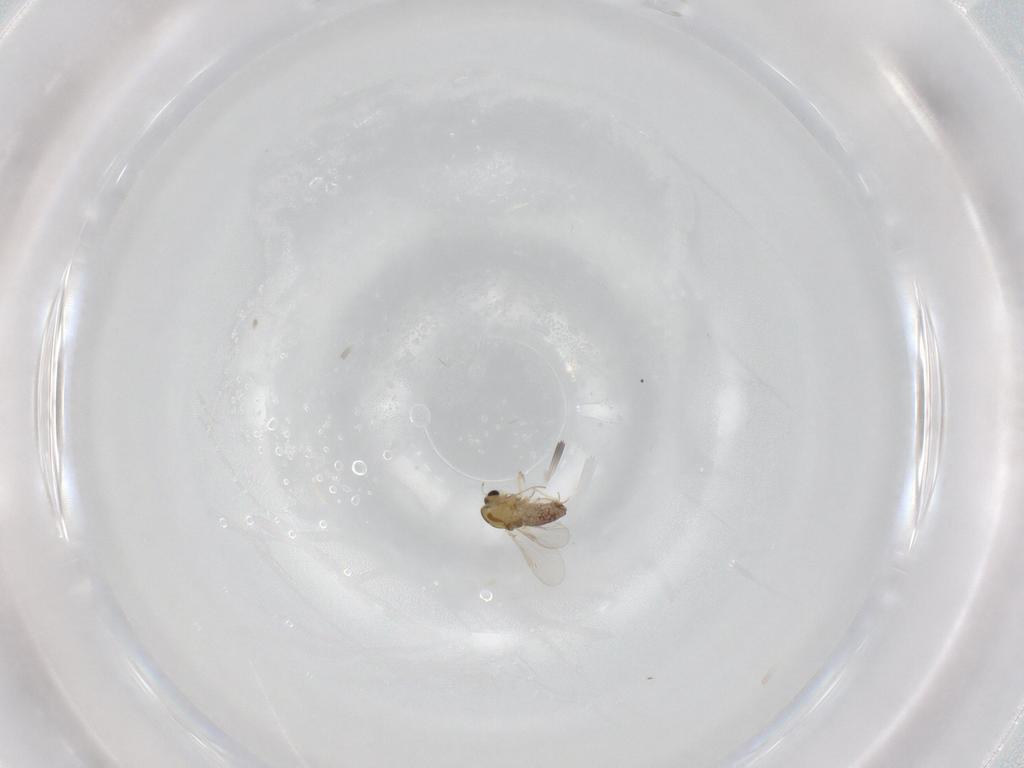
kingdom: Animalia
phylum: Arthropoda
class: Insecta
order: Diptera
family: Chironomidae
